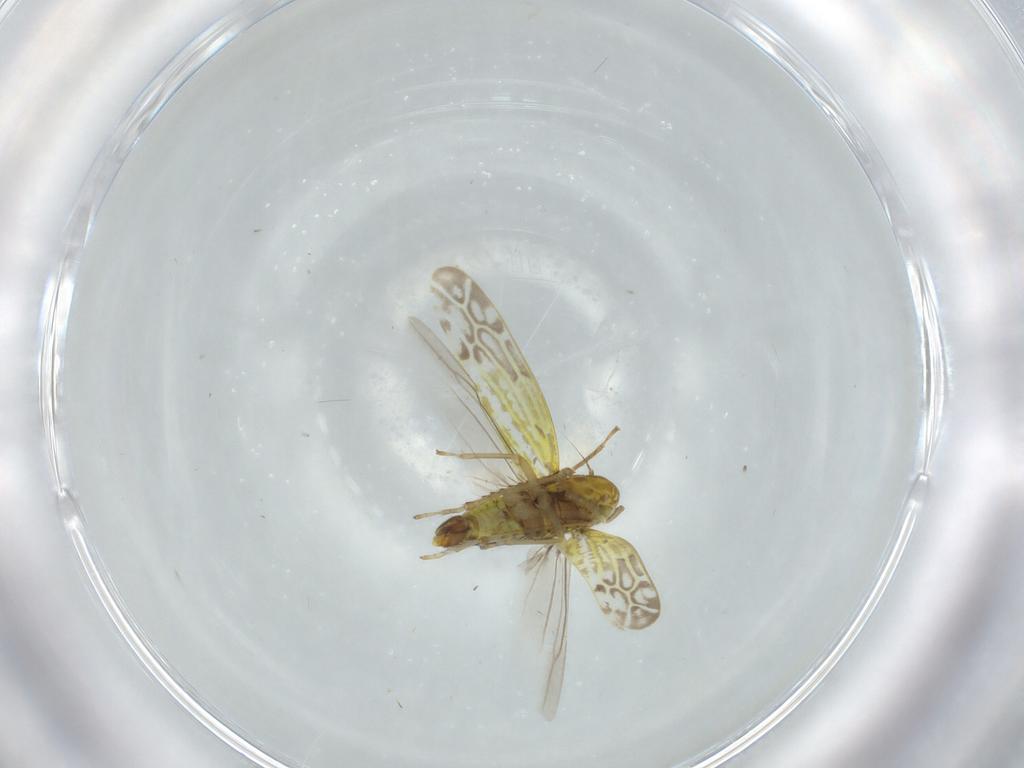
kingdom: Animalia
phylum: Arthropoda
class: Insecta
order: Hemiptera
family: Cicadellidae
